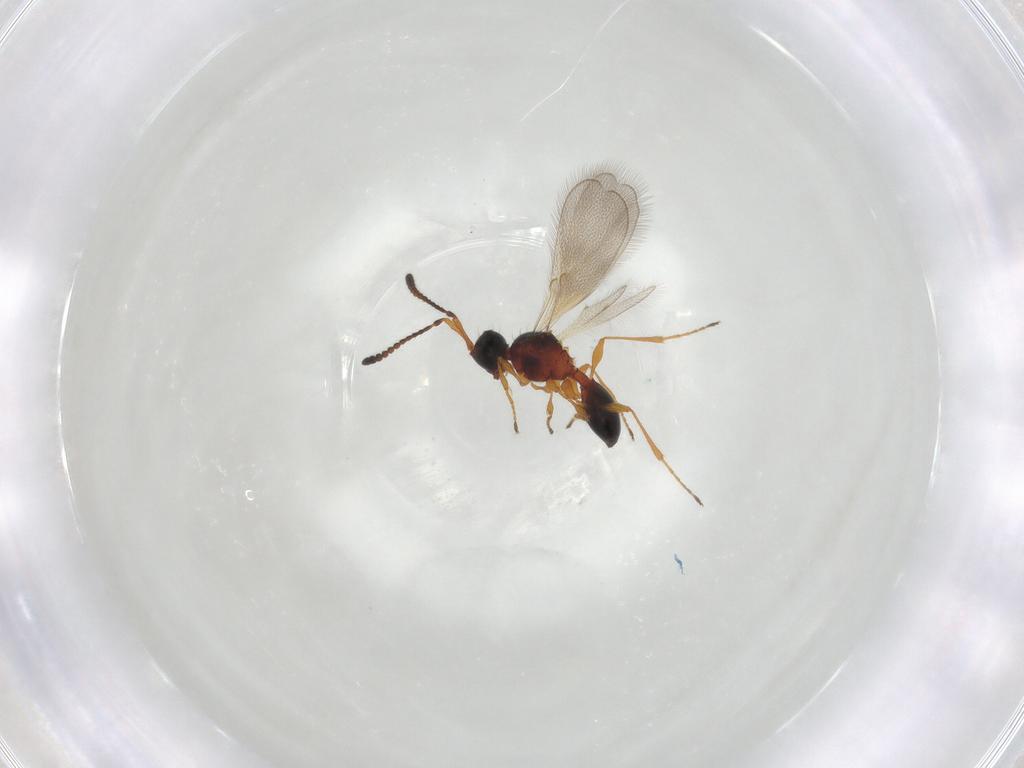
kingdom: Animalia
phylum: Arthropoda
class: Insecta
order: Hymenoptera
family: Diapriidae
